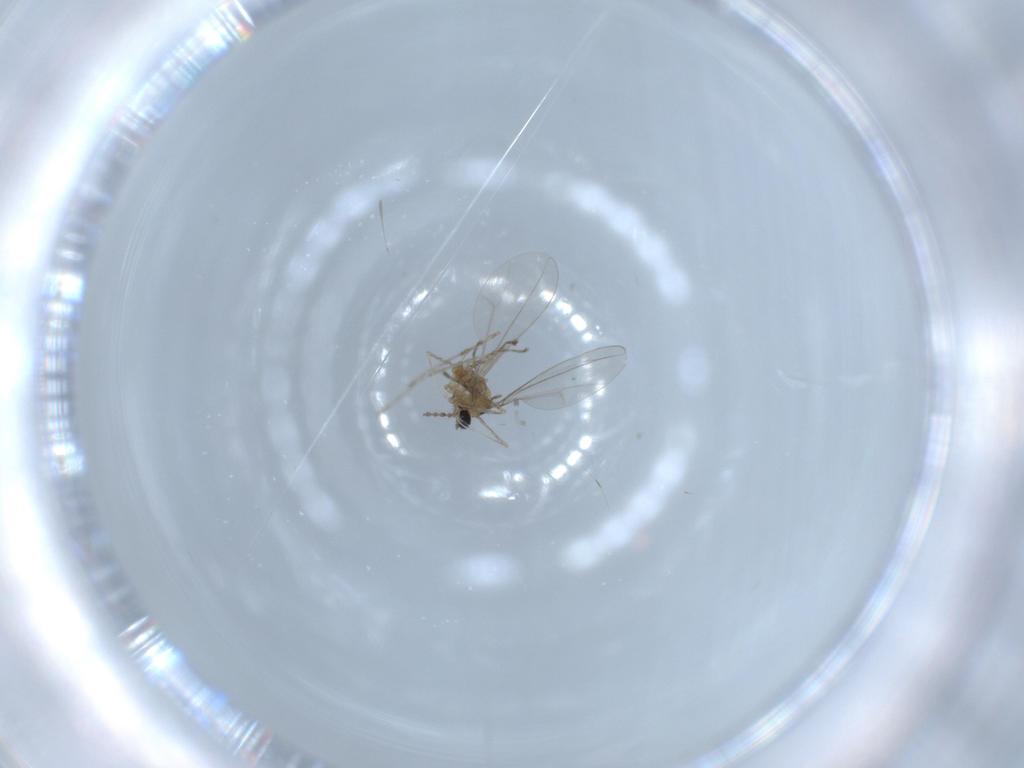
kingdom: Animalia
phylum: Arthropoda
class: Insecta
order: Diptera
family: Cecidomyiidae
